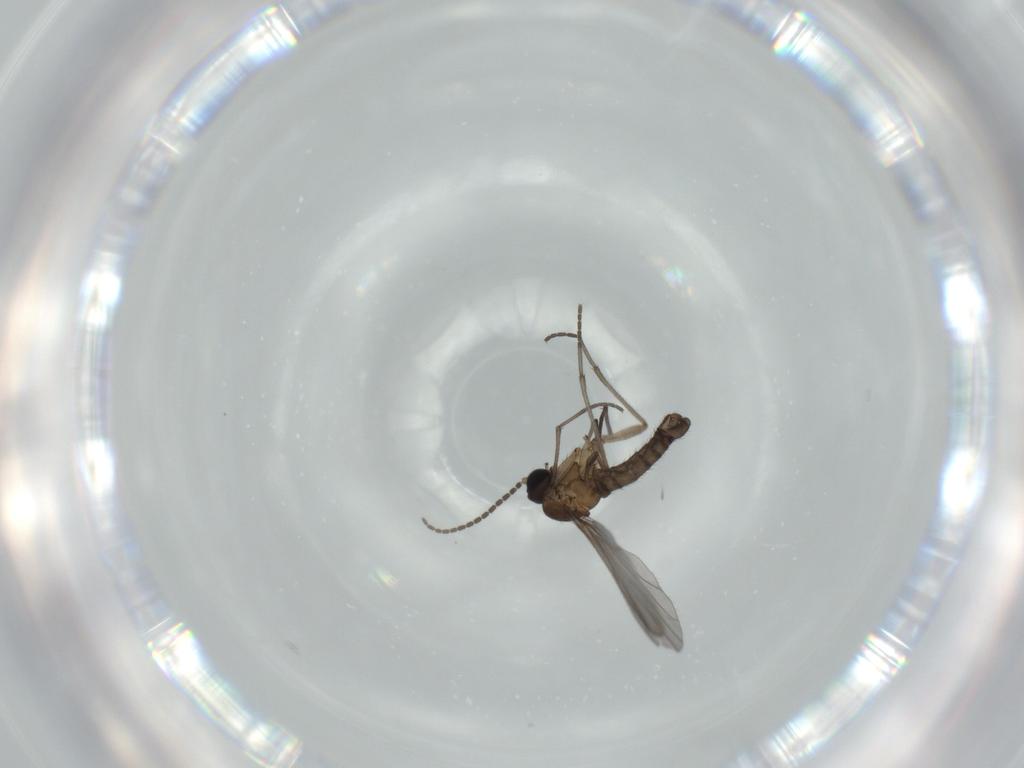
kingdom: Animalia
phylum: Arthropoda
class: Insecta
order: Diptera
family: Sciaridae
